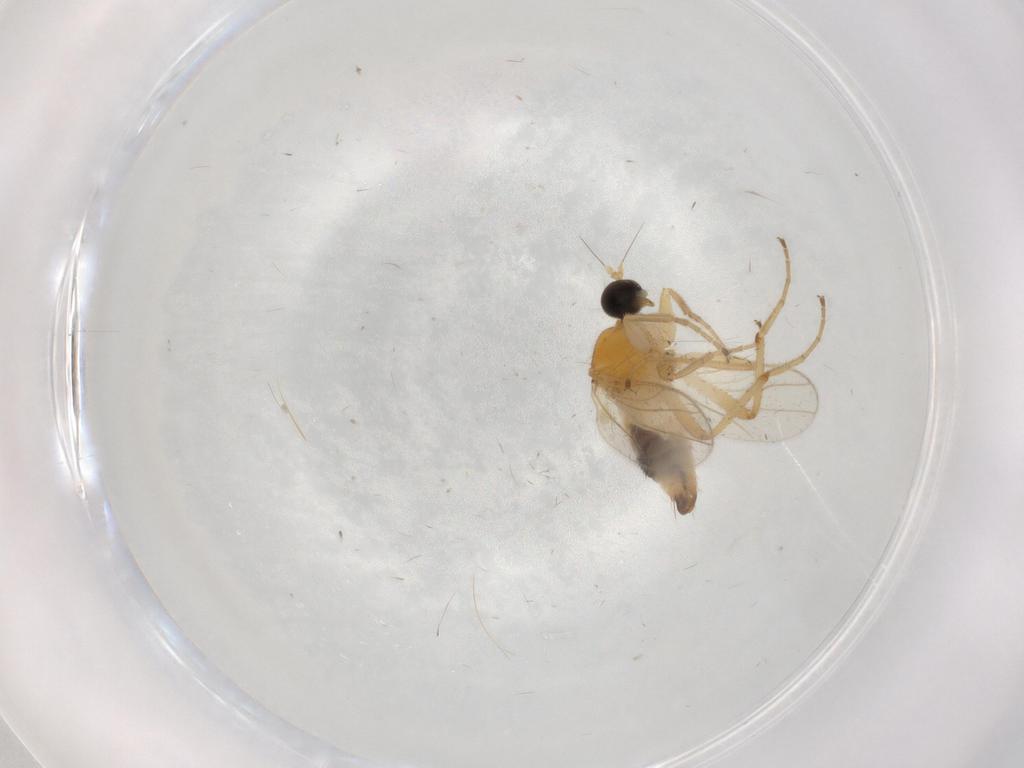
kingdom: Animalia
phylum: Arthropoda
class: Insecta
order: Diptera
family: Hybotidae
